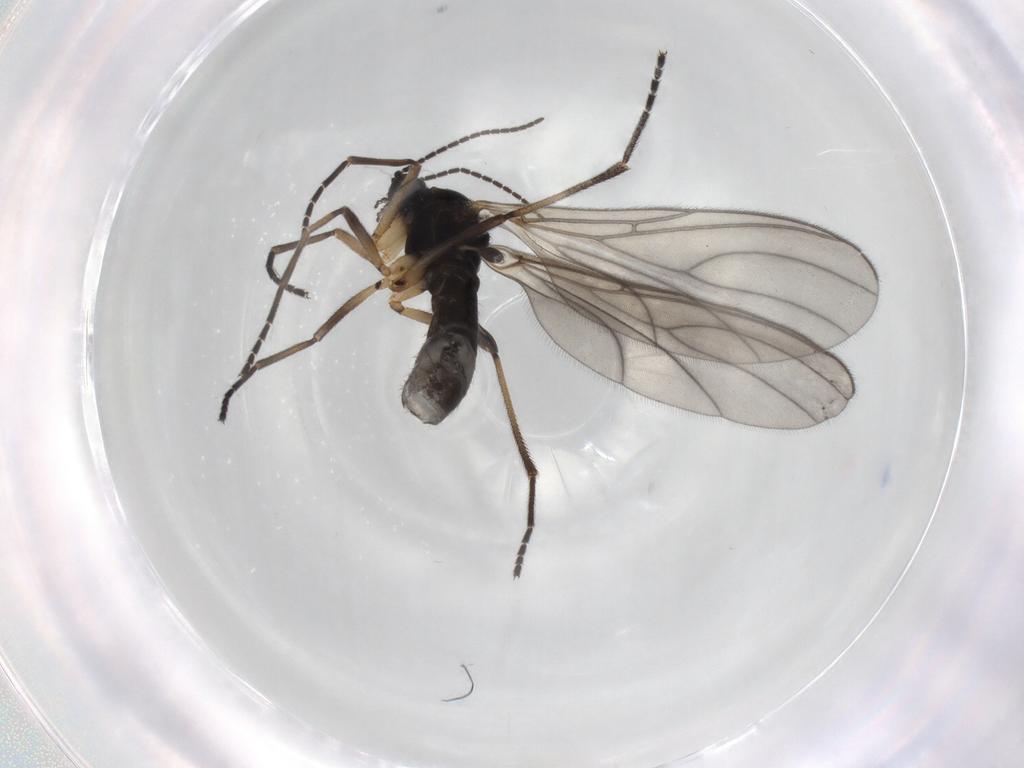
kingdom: Animalia
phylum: Arthropoda
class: Insecta
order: Diptera
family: Sciaridae
